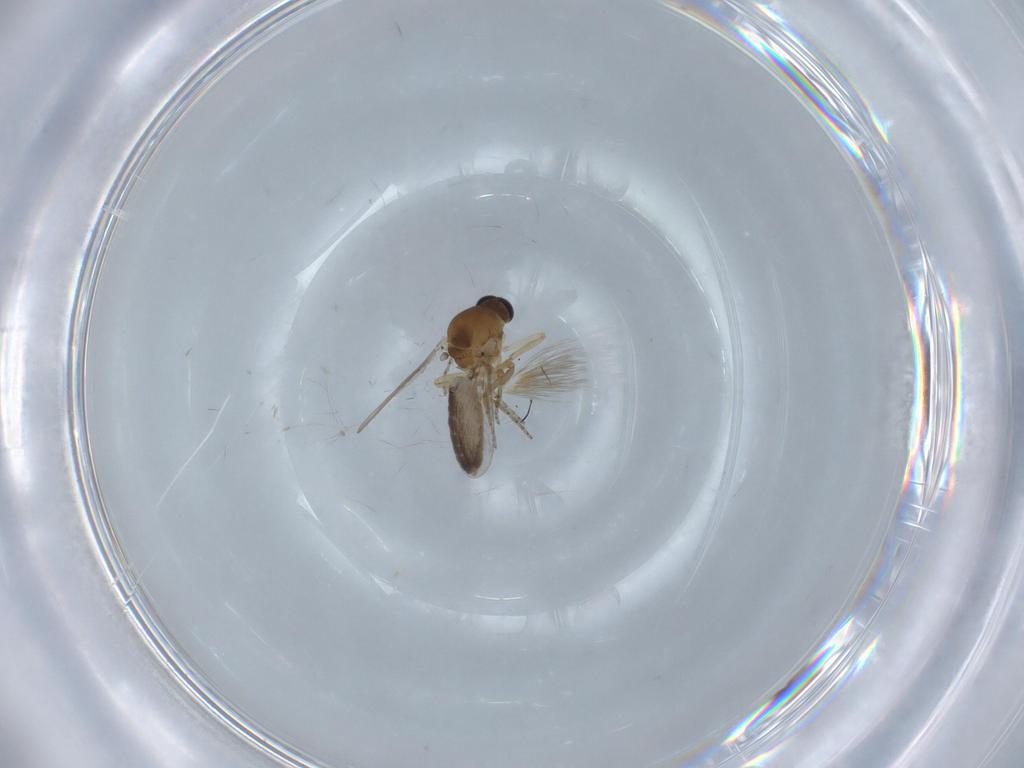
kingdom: Animalia
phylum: Arthropoda
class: Insecta
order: Diptera
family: Ceratopogonidae
